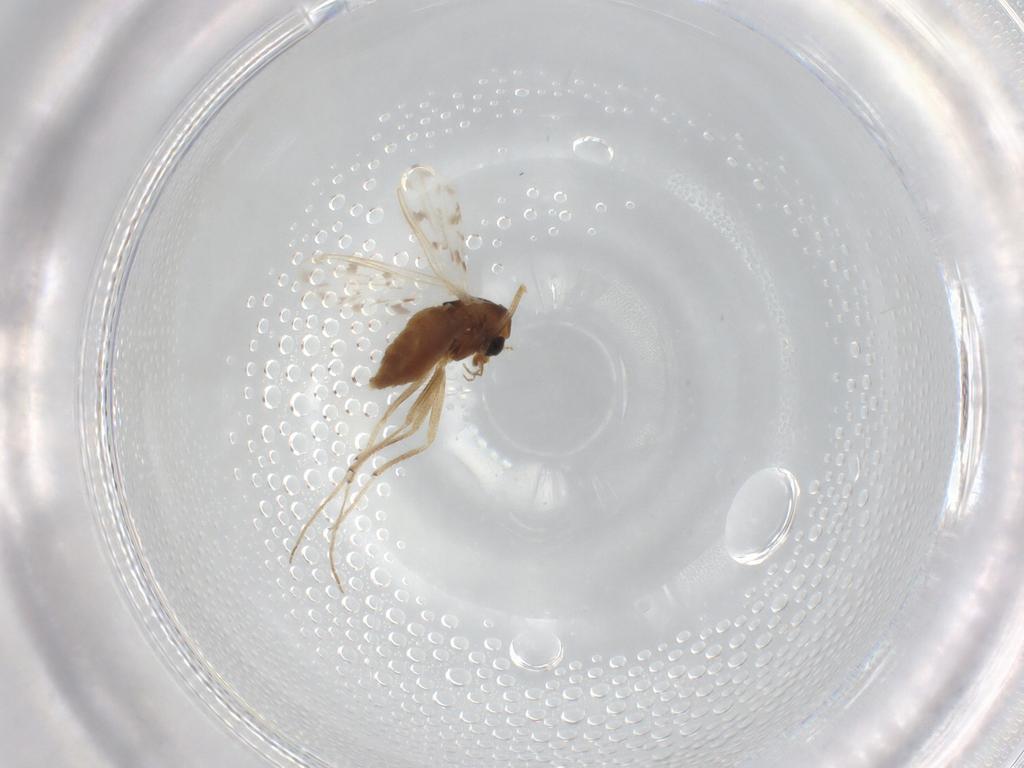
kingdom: Animalia
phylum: Arthropoda
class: Insecta
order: Diptera
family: Chironomidae
